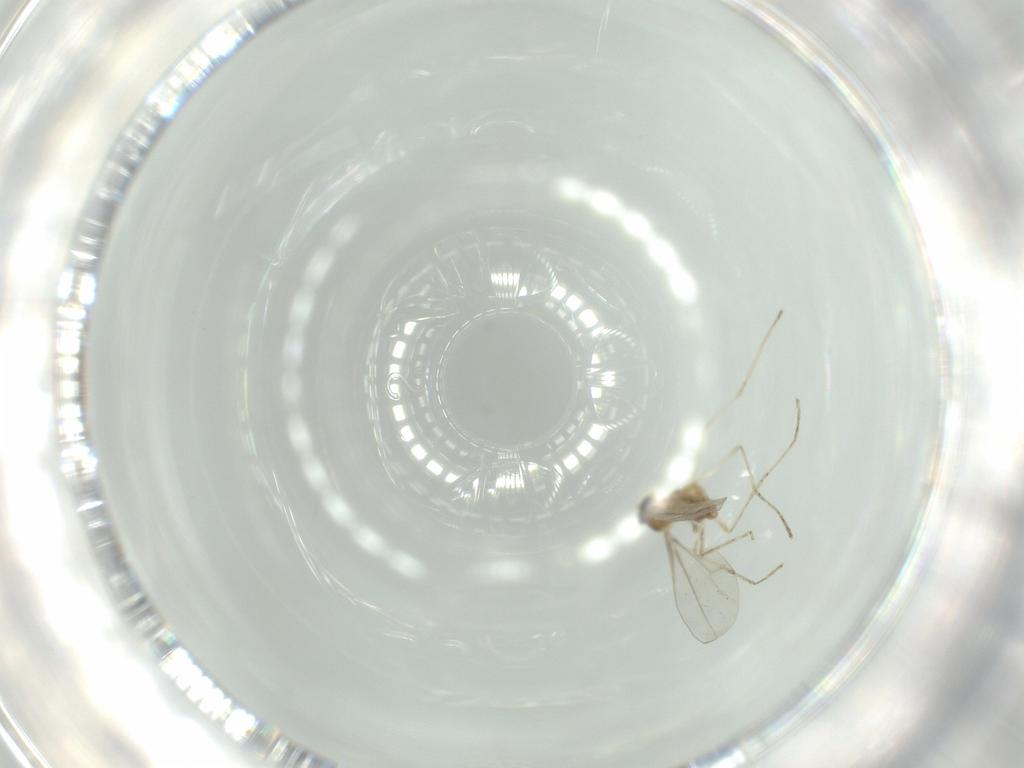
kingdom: Animalia
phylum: Arthropoda
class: Insecta
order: Diptera
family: Cecidomyiidae
